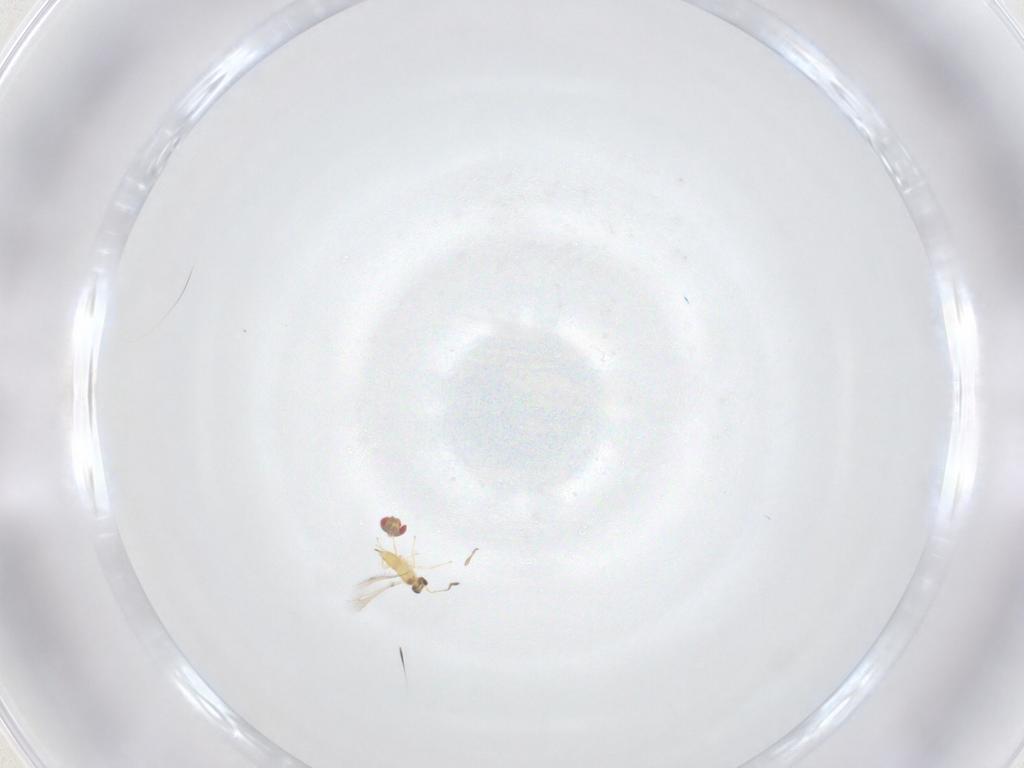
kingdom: Animalia
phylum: Arthropoda
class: Insecta
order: Hymenoptera
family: Trichogrammatidae
